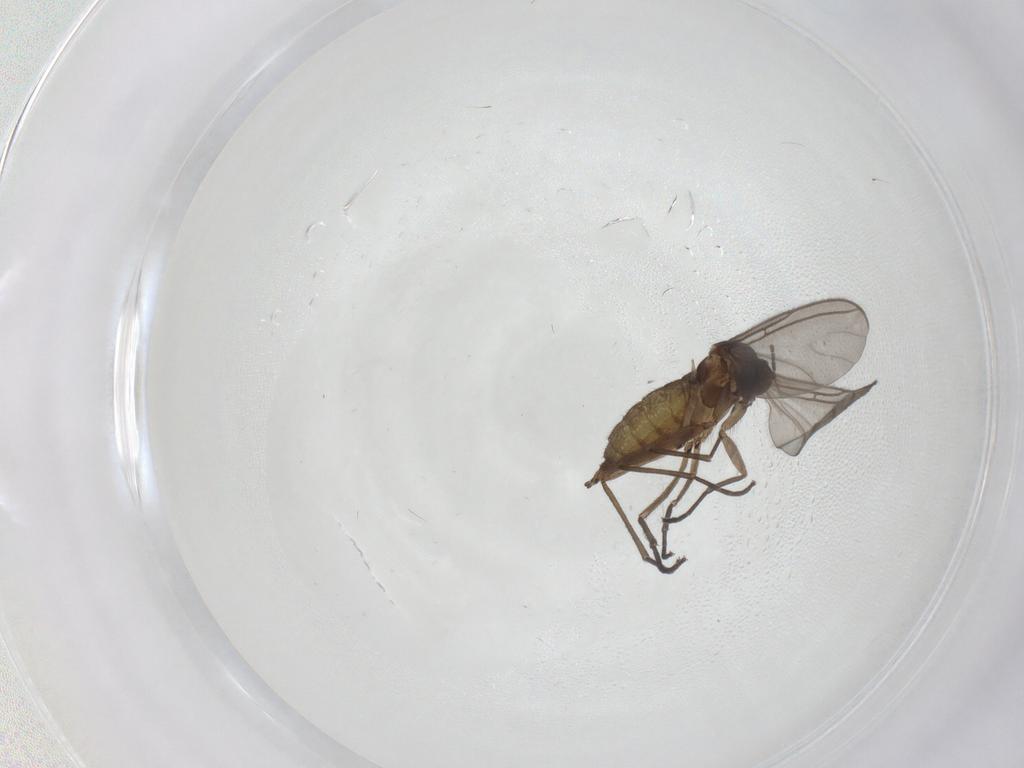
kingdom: Animalia
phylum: Arthropoda
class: Insecta
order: Diptera
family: Sciaridae
